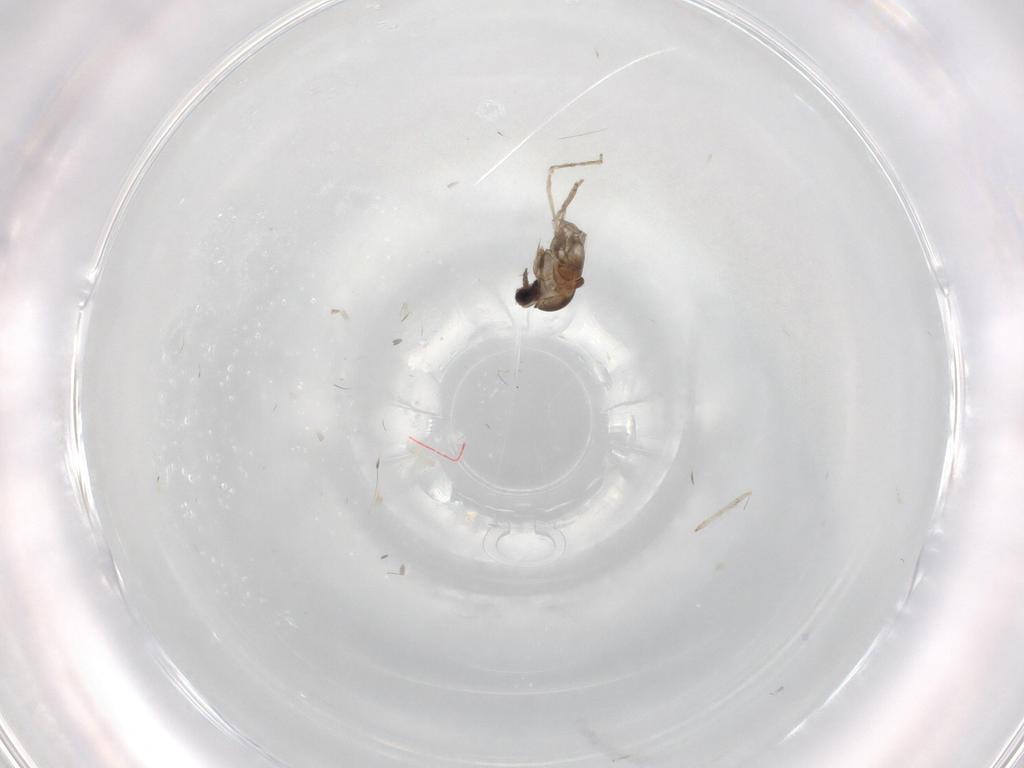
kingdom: Animalia
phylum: Arthropoda
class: Insecta
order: Diptera
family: Cecidomyiidae
